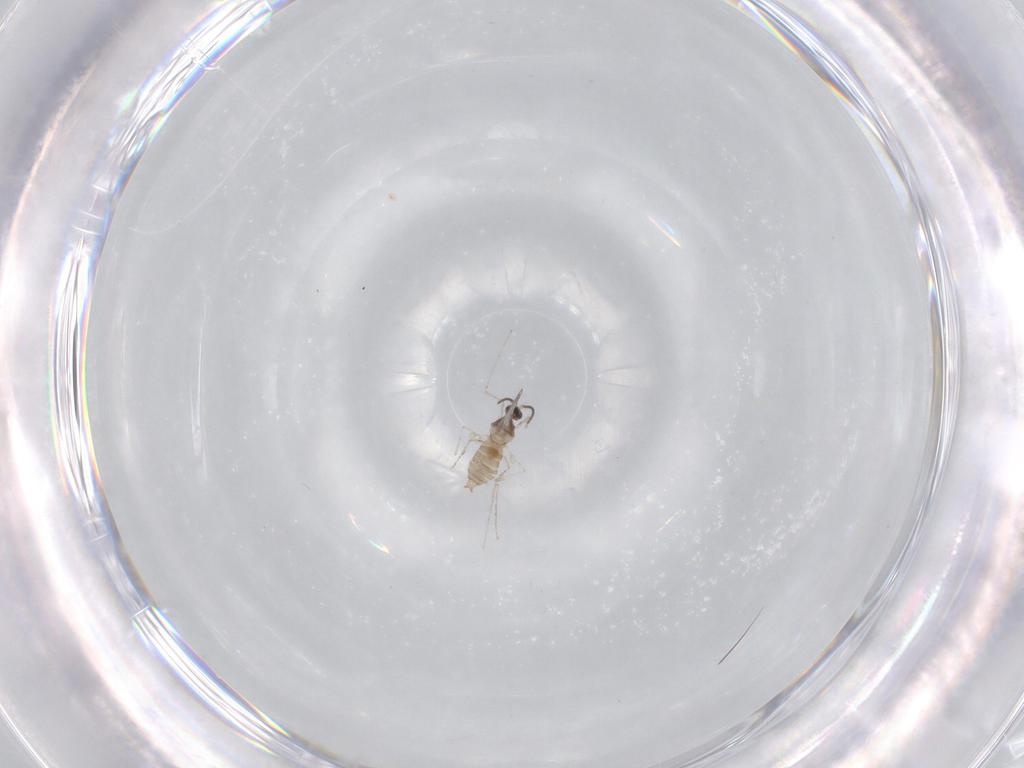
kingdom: Animalia
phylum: Arthropoda
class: Insecta
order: Diptera
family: Cecidomyiidae
